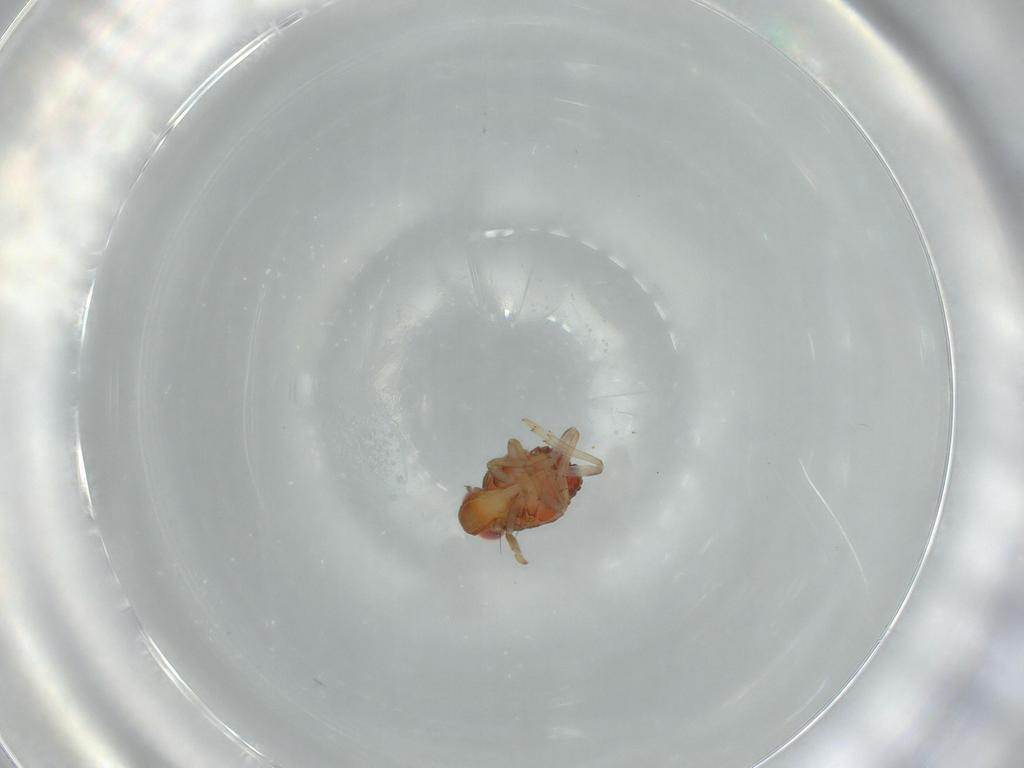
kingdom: Animalia
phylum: Arthropoda
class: Insecta
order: Hemiptera
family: Issidae
